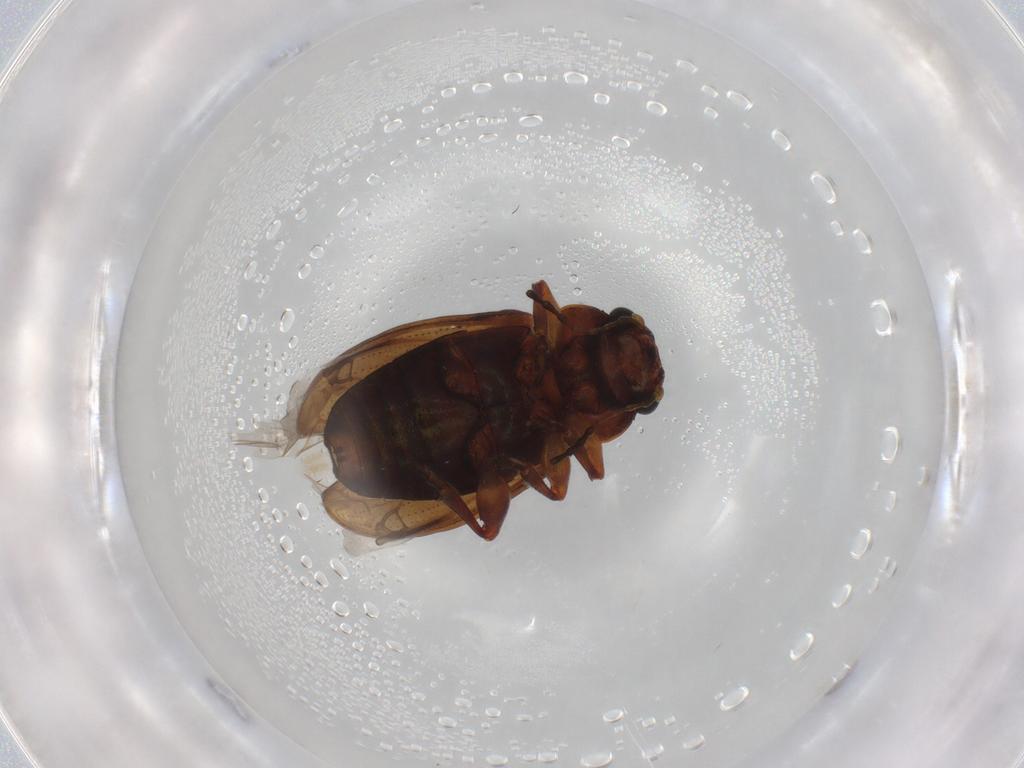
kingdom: Animalia
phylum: Arthropoda
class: Insecta
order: Coleoptera
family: Chrysomelidae
